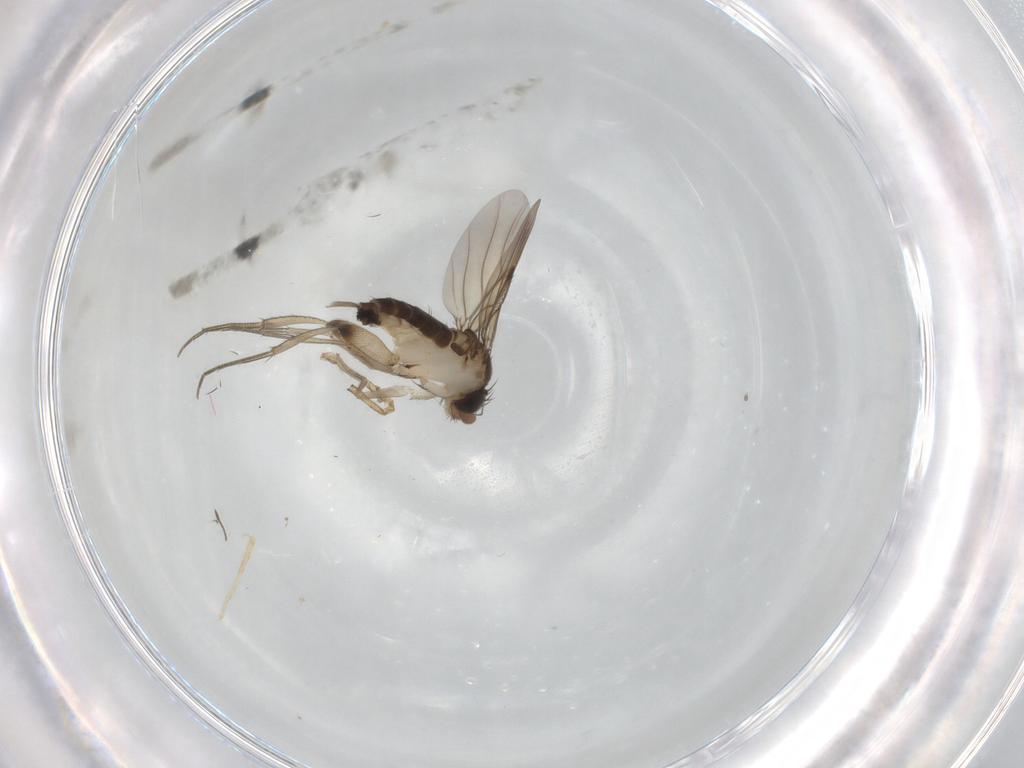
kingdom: Animalia
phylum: Arthropoda
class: Insecta
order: Diptera
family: Phoridae
